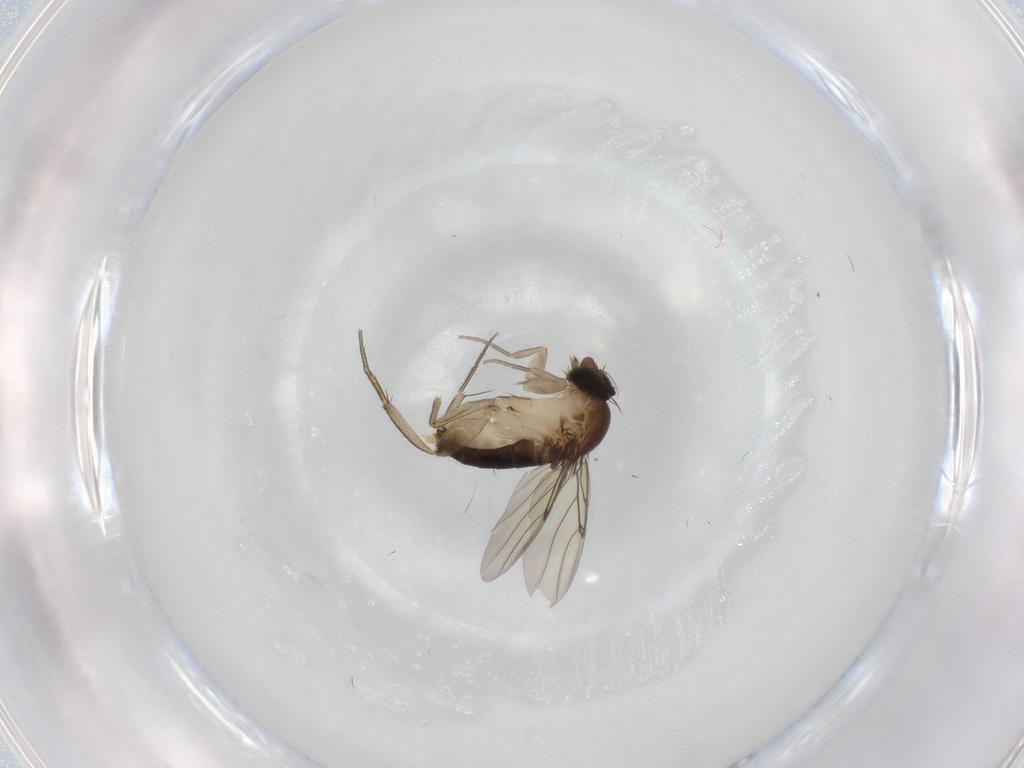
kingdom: Animalia
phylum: Arthropoda
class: Insecta
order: Diptera
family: Phoridae
